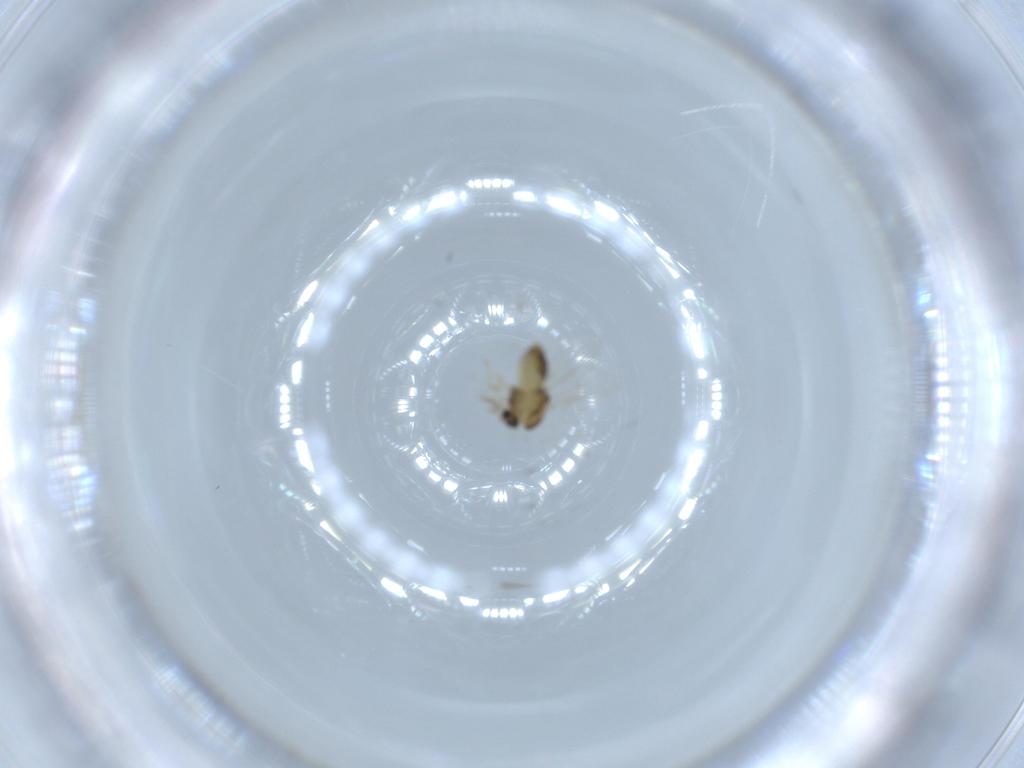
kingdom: Animalia
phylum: Arthropoda
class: Insecta
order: Diptera
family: Chironomidae
